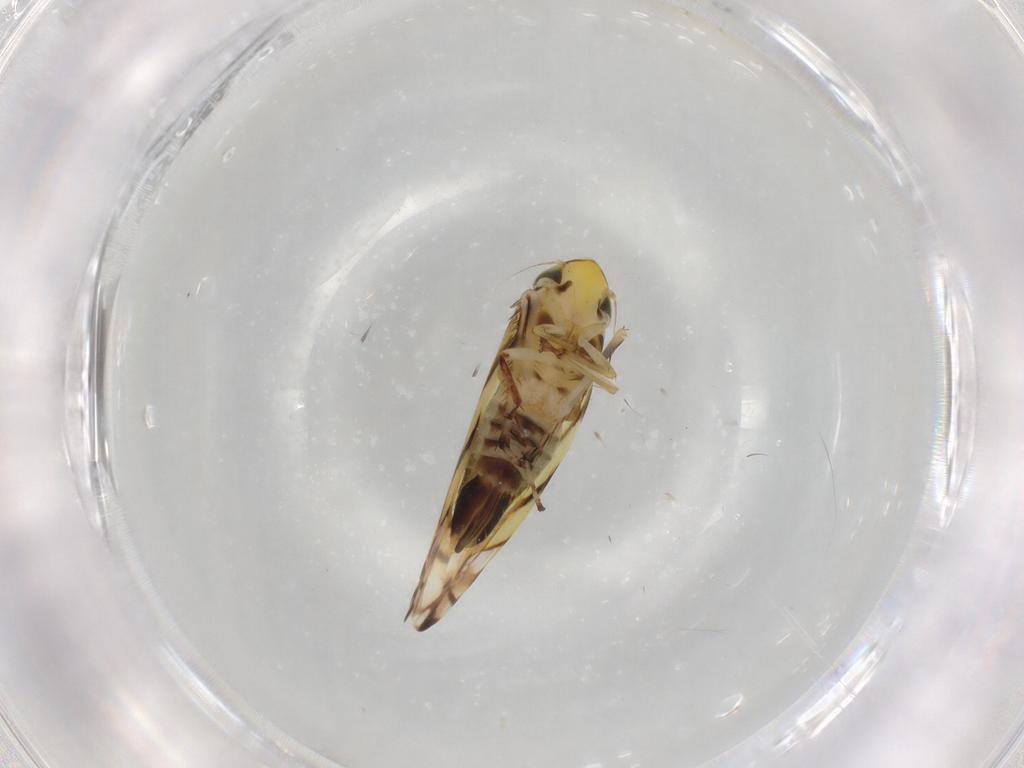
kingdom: Animalia
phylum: Arthropoda
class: Insecta
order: Hemiptera
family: Cicadellidae
